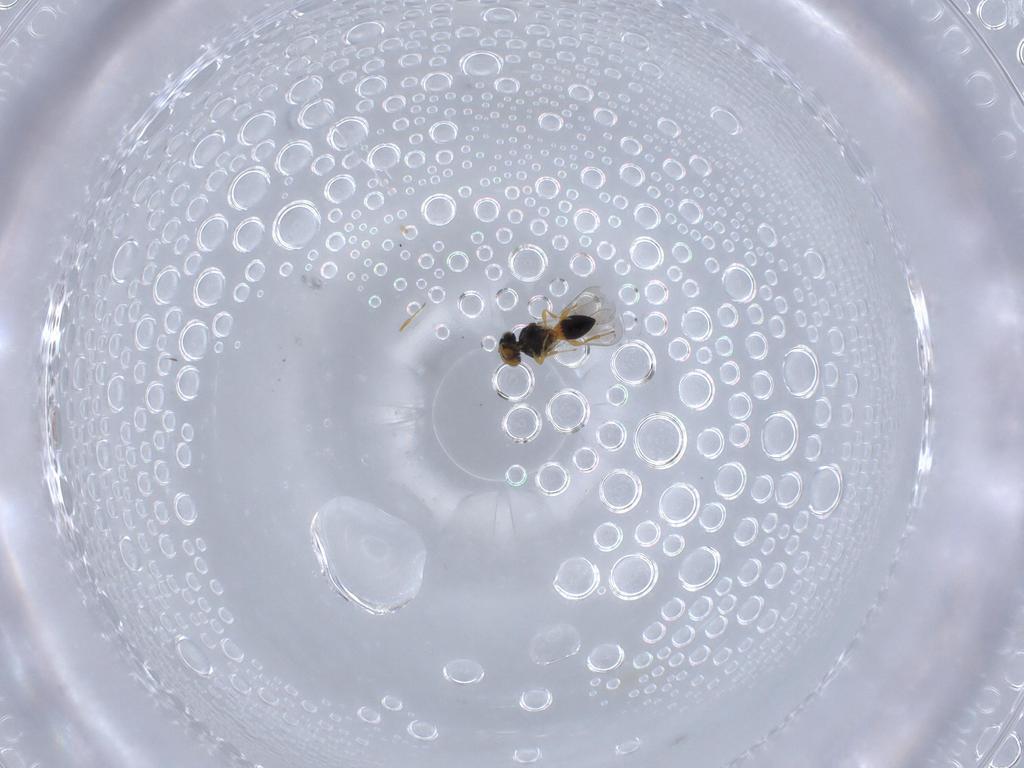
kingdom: Animalia
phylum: Arthropoda
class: Insecta
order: Hymenoptera
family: Platygastridae
